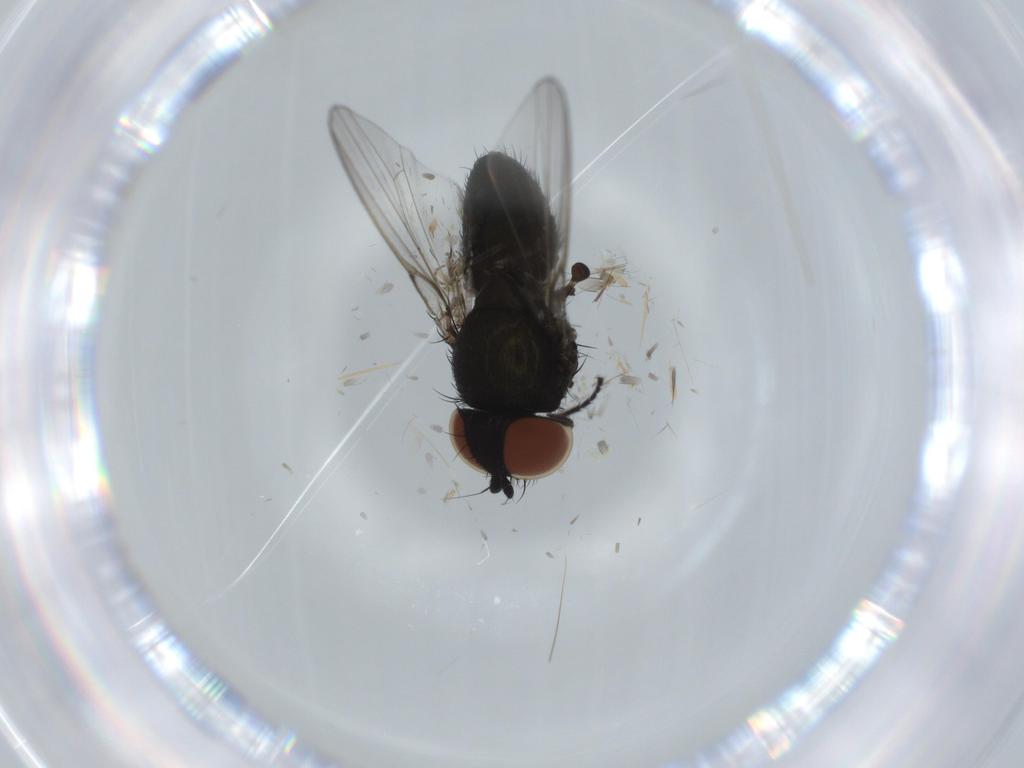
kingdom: Animalia
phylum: Arthropoda
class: Insecta
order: Diptera
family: Milichiidae
